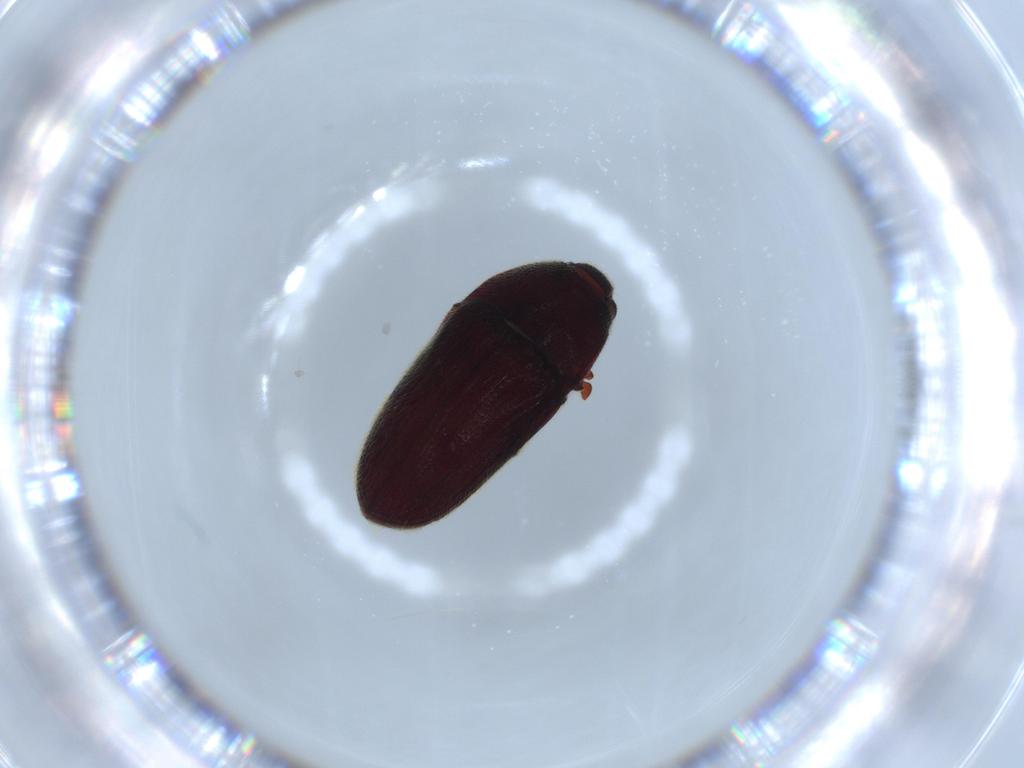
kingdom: Animalia
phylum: Arthropoda
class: Insecta
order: Coleoptera
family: Throscidae
